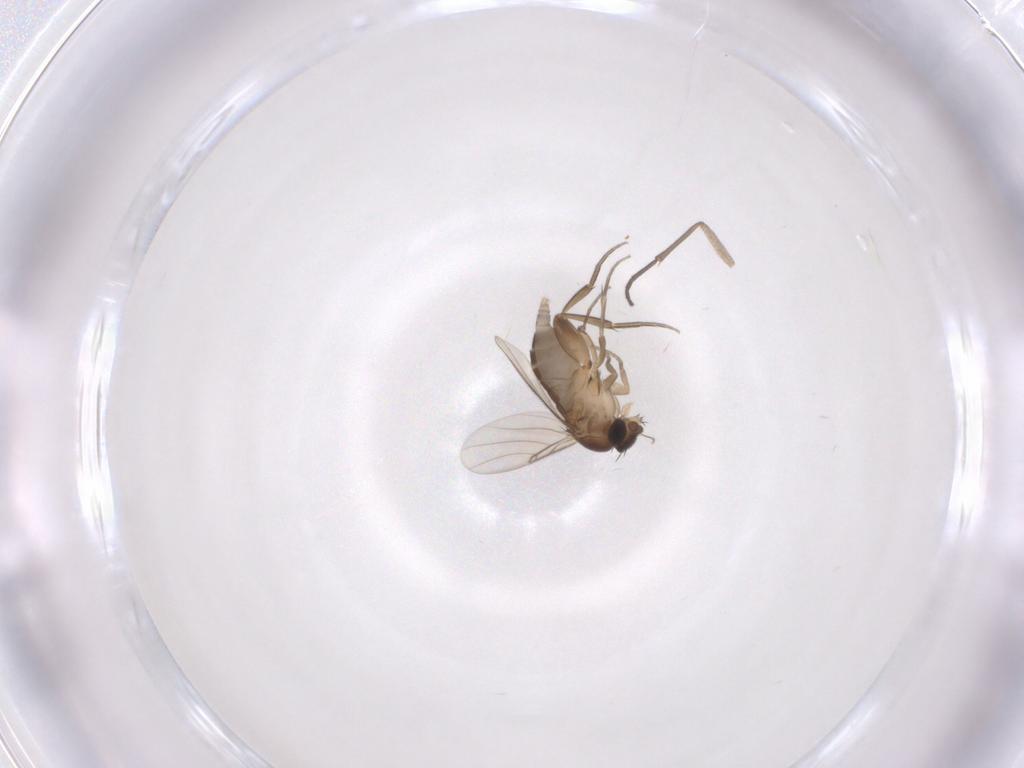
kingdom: Animalia
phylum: Arthropoda
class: Insecta
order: Diptera
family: Phoridae
